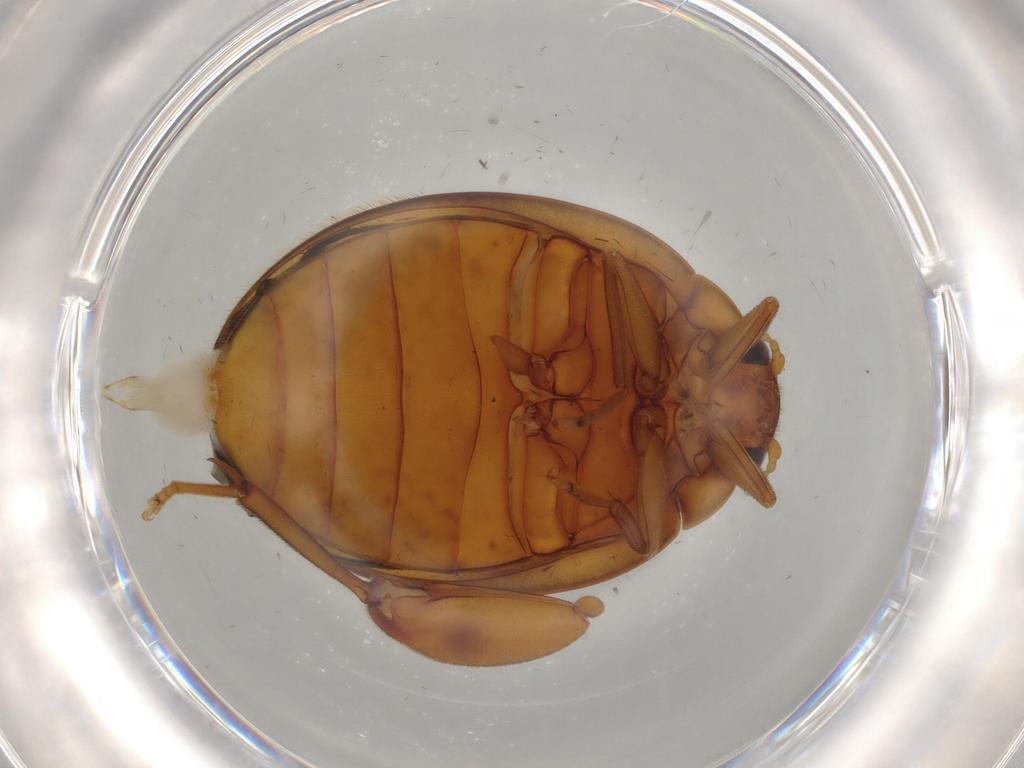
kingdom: Animalia
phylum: Arthropoda
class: Insecta
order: Coleoptera
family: Scirtidae
